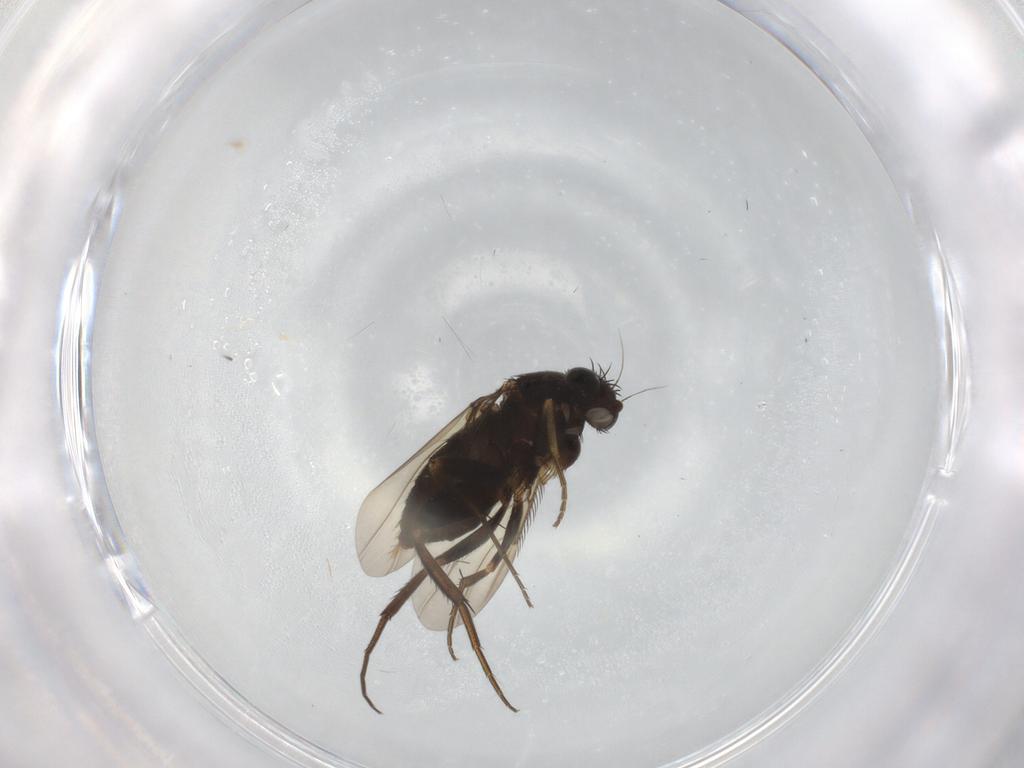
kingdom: Animalia
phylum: Arthropoda
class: Insecta
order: Diptera
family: Phoridae
